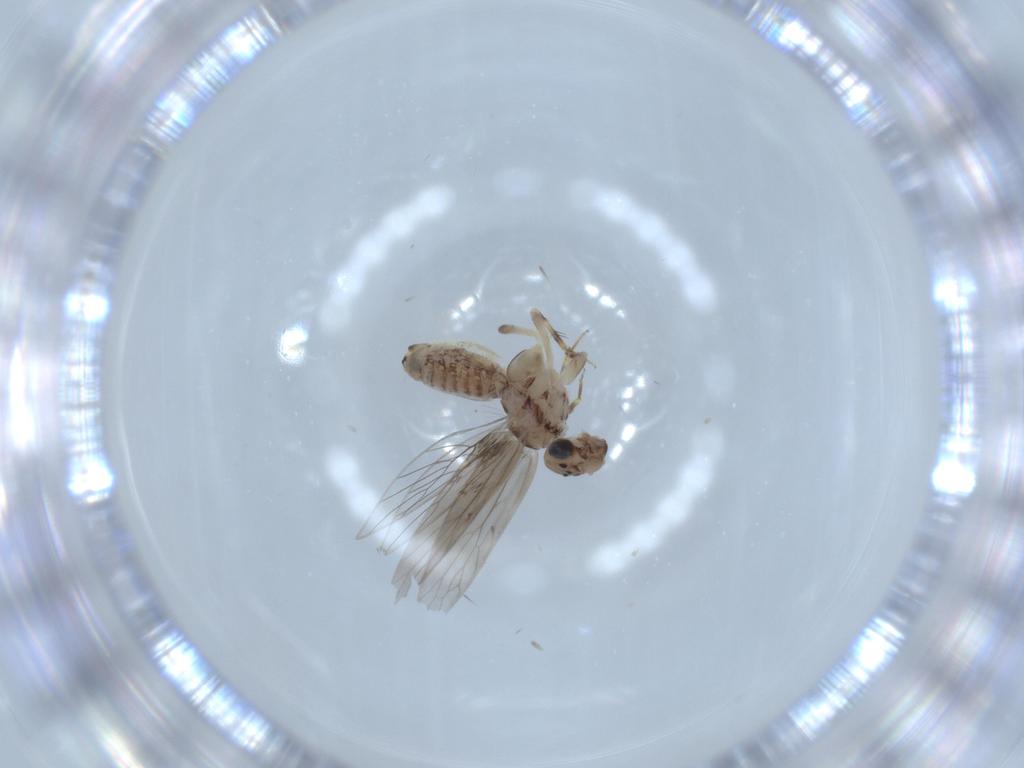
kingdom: Animalia
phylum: Arthropoda
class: Insecta
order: Psocodea
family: Lepidopsocidae
